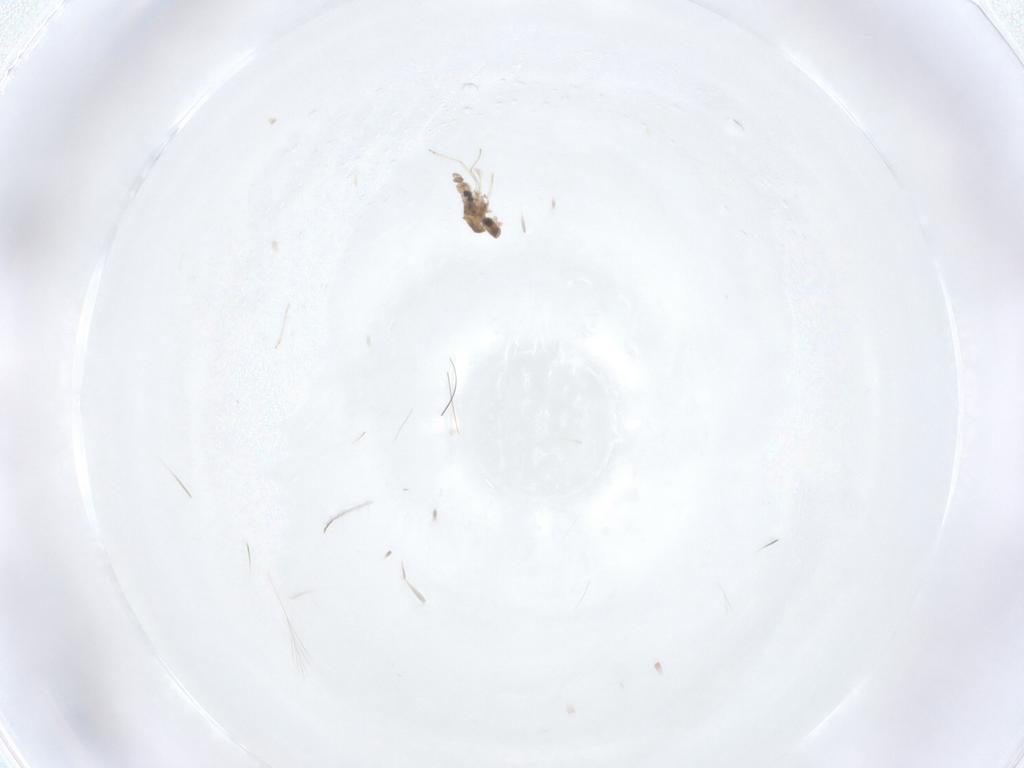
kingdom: Animalia
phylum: Arthropoda
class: Insecta
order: Diptera
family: Cecidomyiidae
